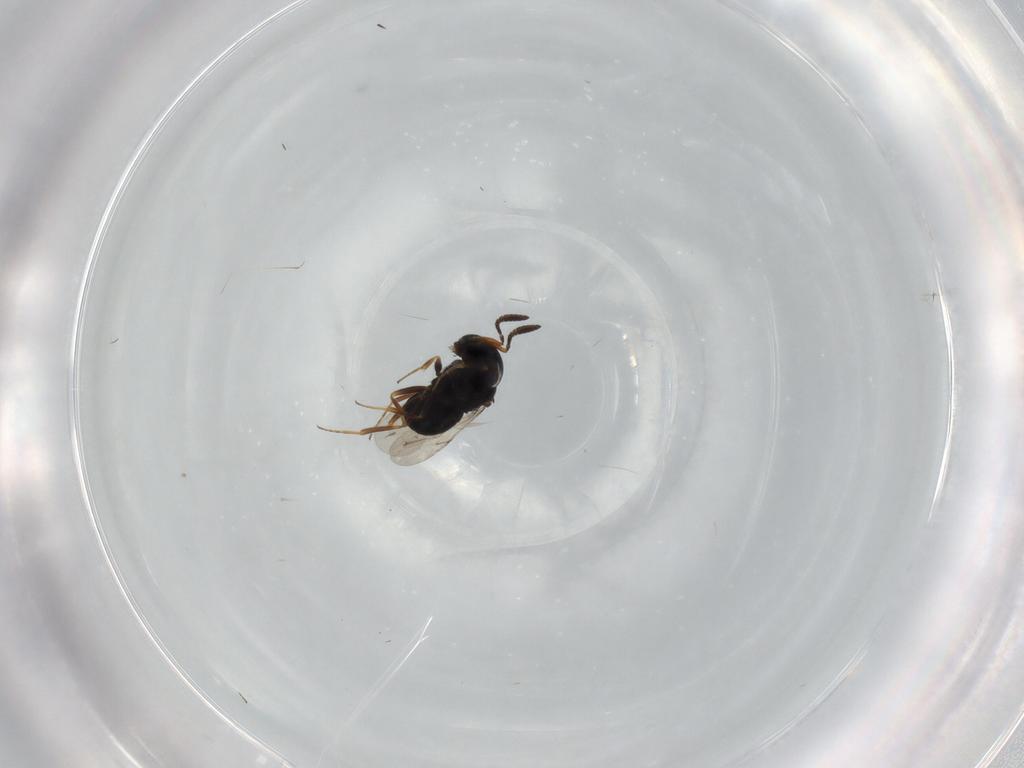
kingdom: Animalia
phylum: Arthropoda
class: Insecta
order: Hymenoptera
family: Scelionidae
